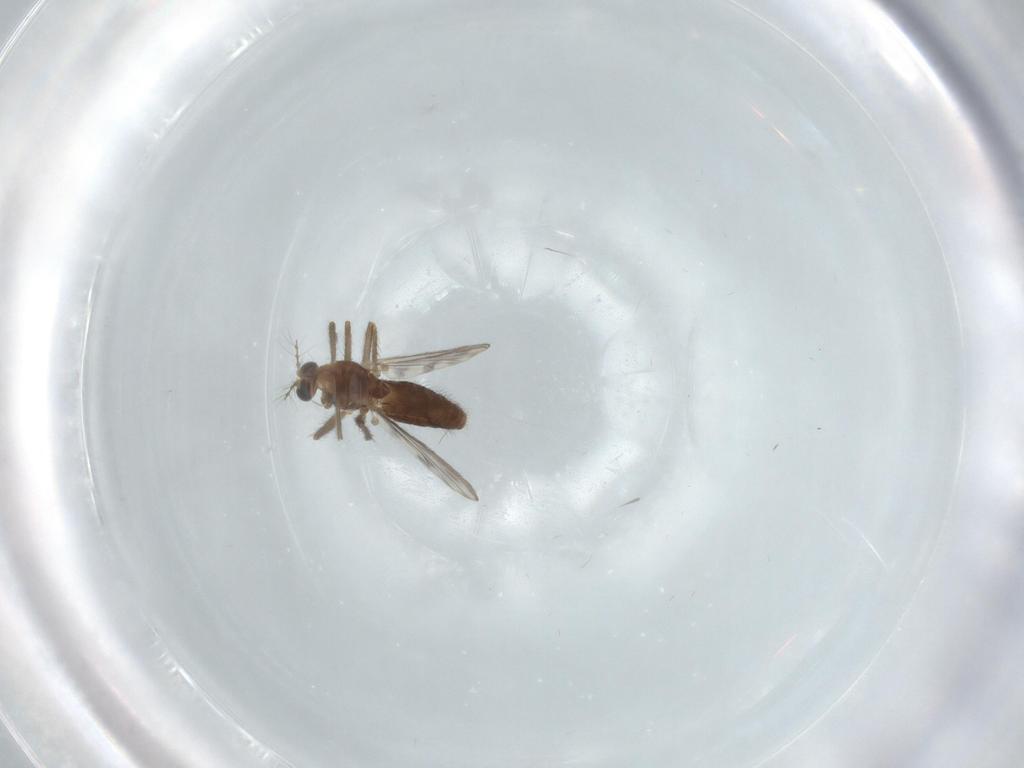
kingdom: Animalia
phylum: Arthropoda
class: Insecta
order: Diptera
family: Chironomidae
